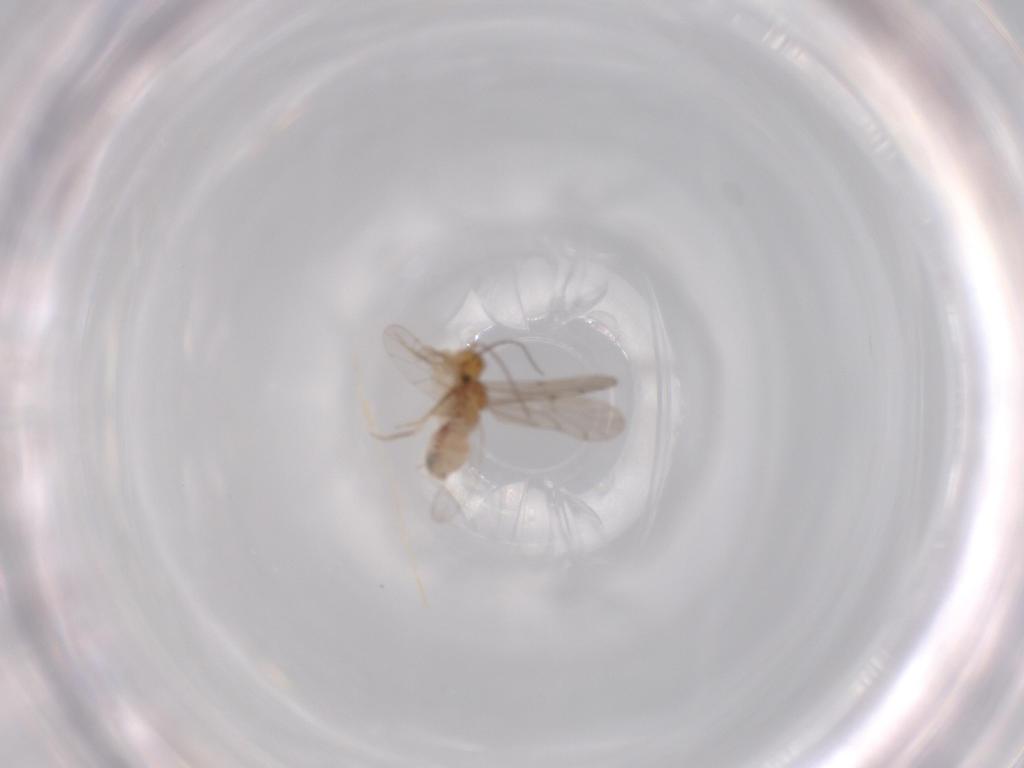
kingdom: Animalia
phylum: Arthropoda
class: Insecta
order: Psocodea
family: Ectopsocidae
